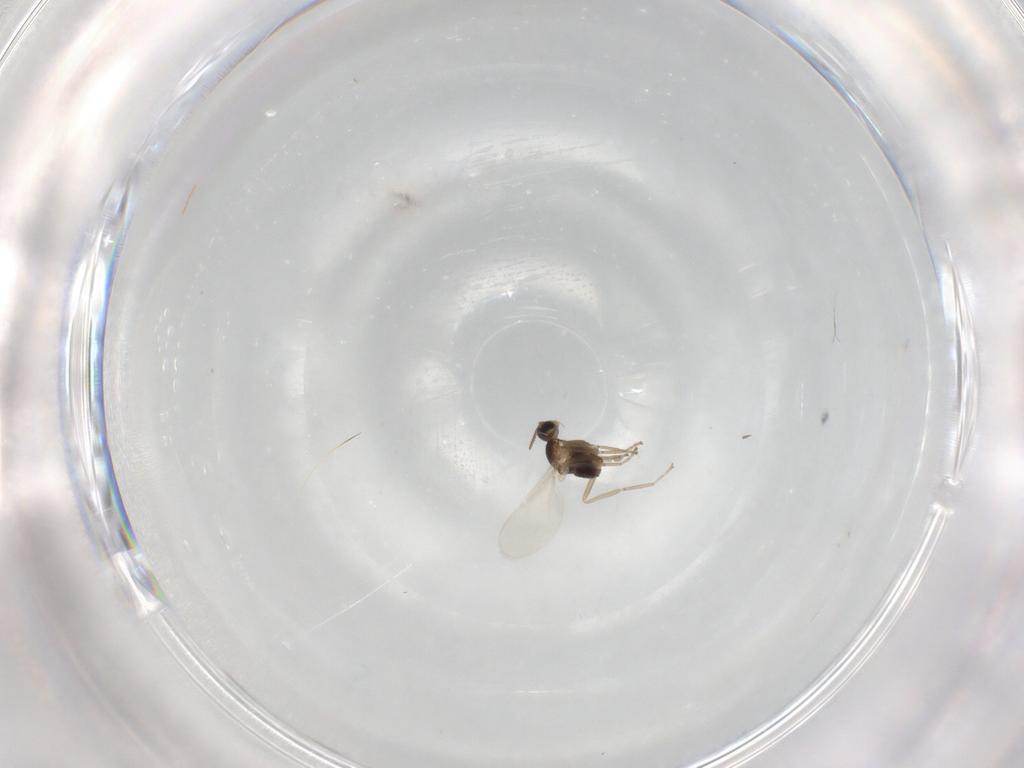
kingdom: Animalia
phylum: Arthropoda
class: Insecta
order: Diptera
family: Cecidomyiidae
